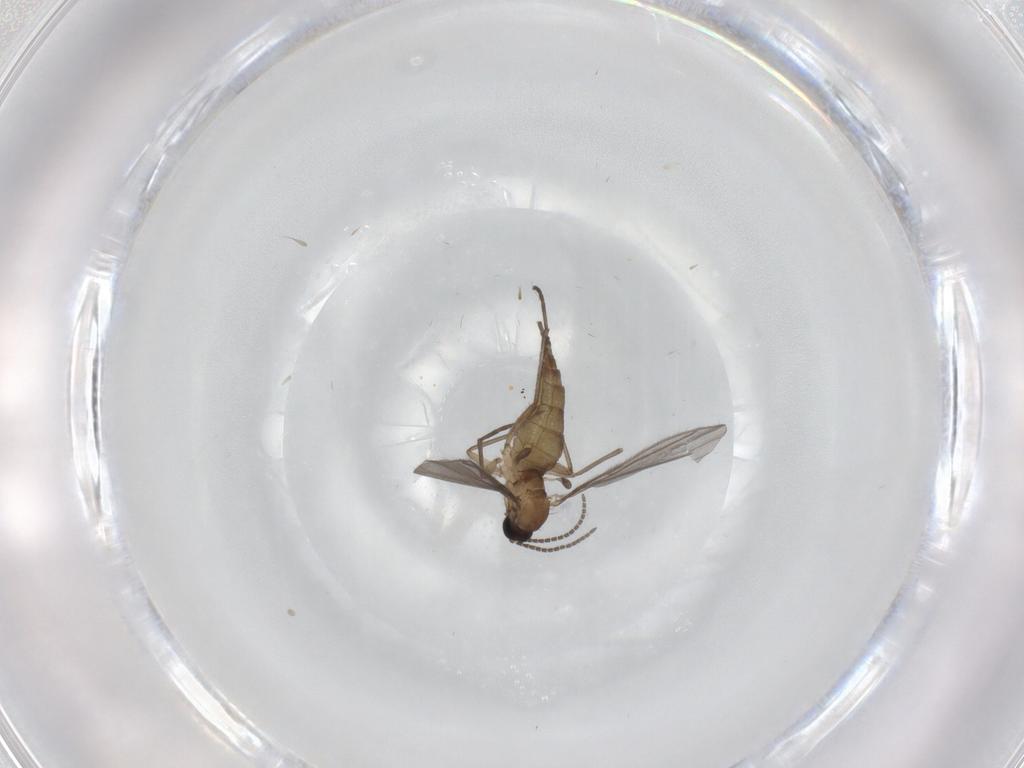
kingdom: Animalia
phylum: Arthropoda
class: Insecta
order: Diptera
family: Sciaridae
